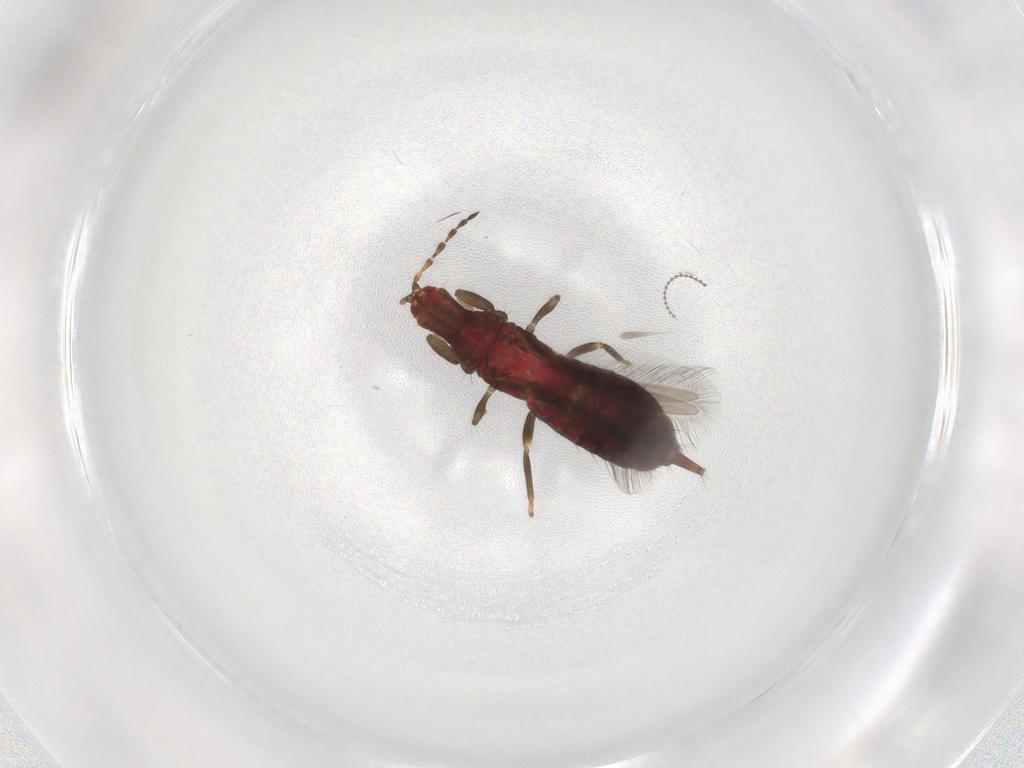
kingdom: Animalia
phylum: Arthropoda
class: Insecta
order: Thysanoptera
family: Phlaeothripidae
